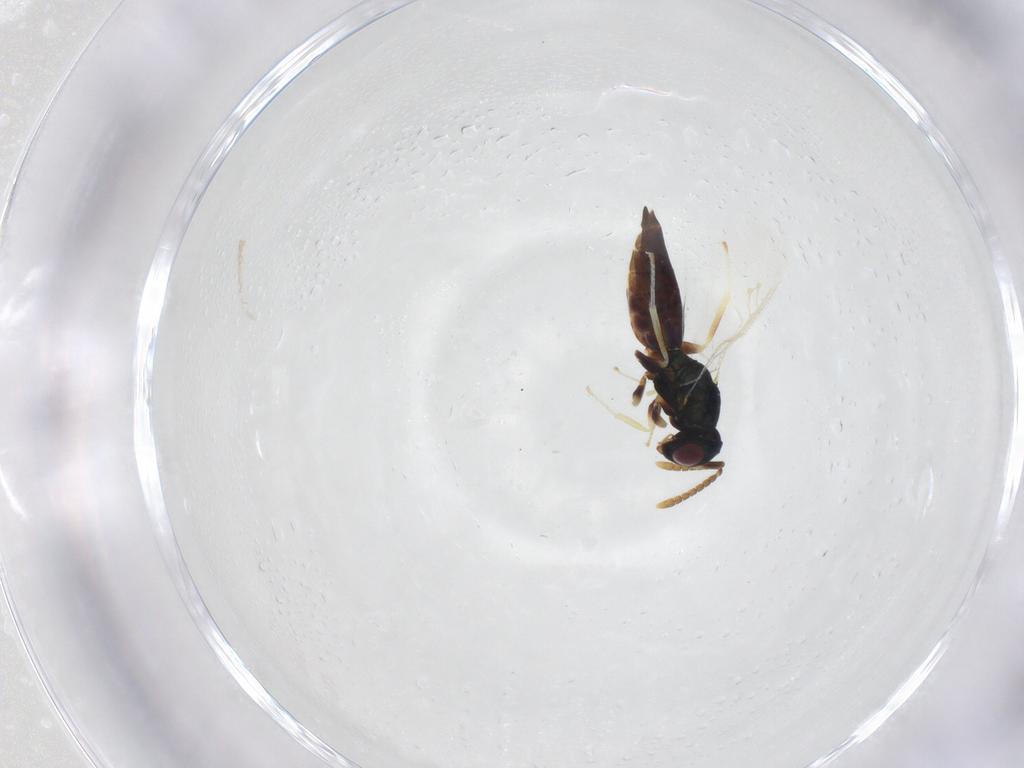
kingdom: Animalia
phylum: Arthropoda
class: Insecta
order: Hymenoptera
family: Pteromalidae
